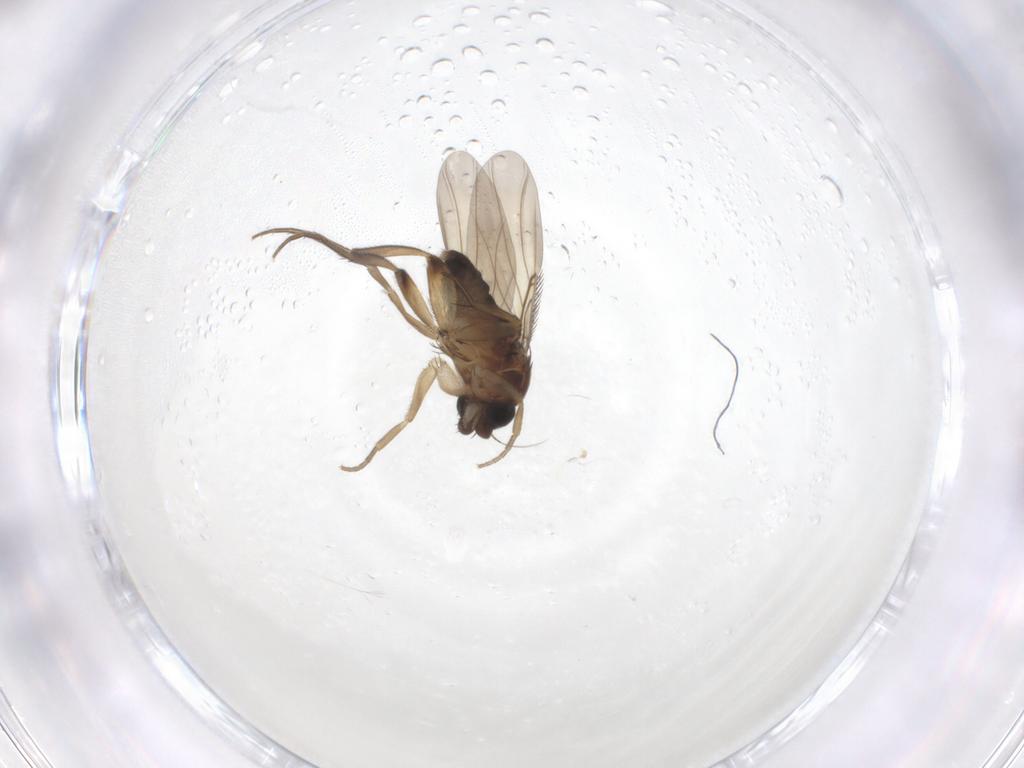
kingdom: Animalia
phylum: Arthropoda
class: Insecta
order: Diptera
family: Phoridae
